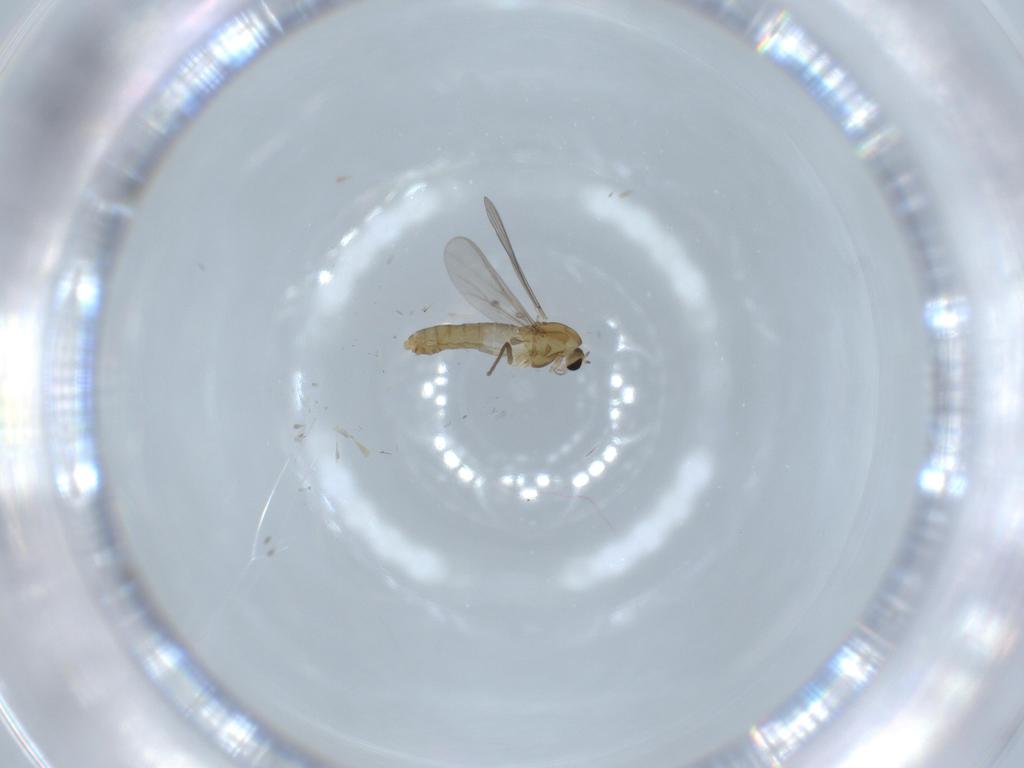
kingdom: Animalia
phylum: Arthropoda
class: Insecta
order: Diptera
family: Chironomidae
